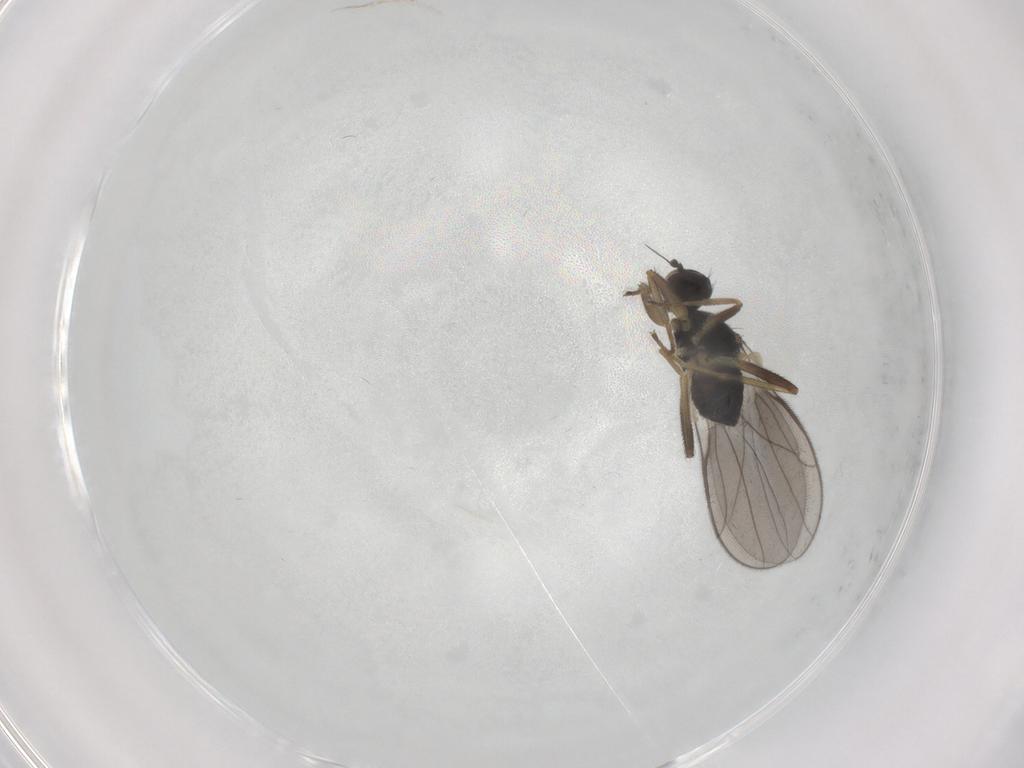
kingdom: Animalia
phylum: Arthropoda
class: Insecta
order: Diptera
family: Hybotidae
